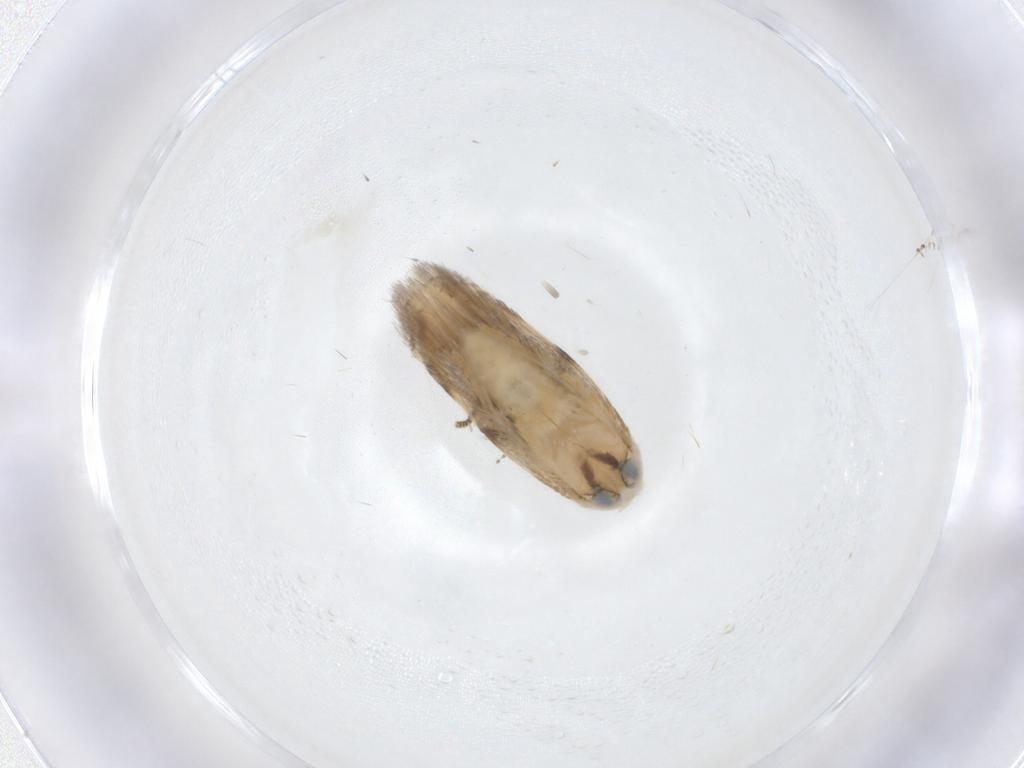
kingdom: Animalia
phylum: Arthropoda
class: Insecta
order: Lepidoptera
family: Opostegidae
